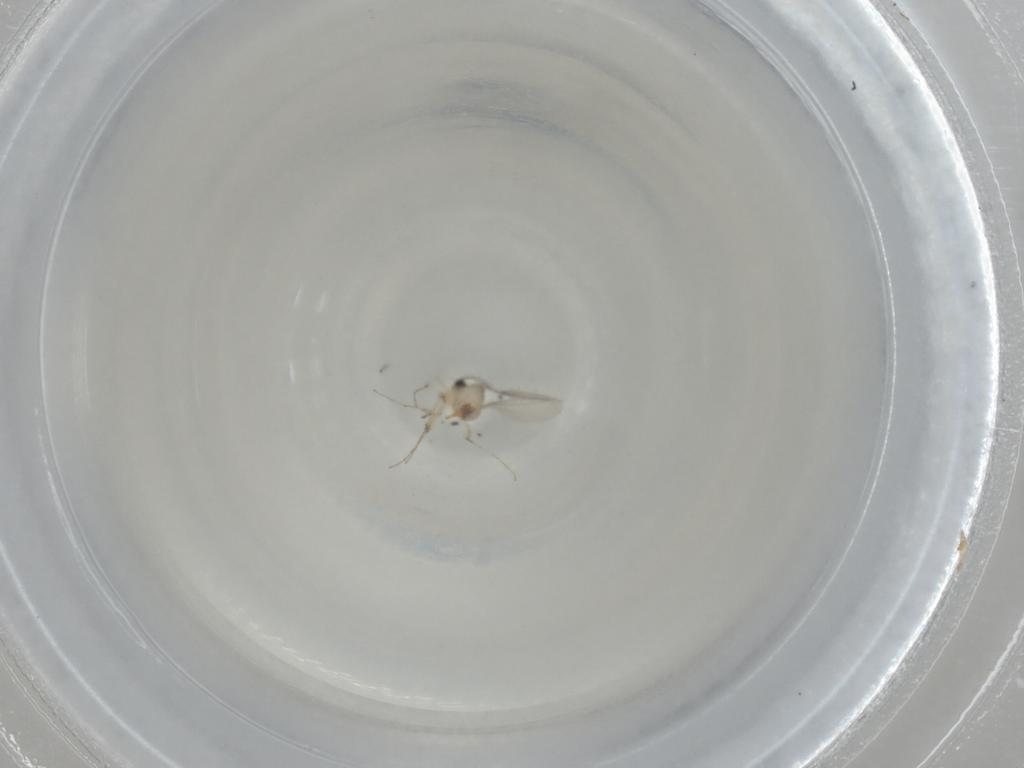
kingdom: Animalia
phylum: Arthropoda
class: Insecta
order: Diptera
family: Cecidomyiidae
